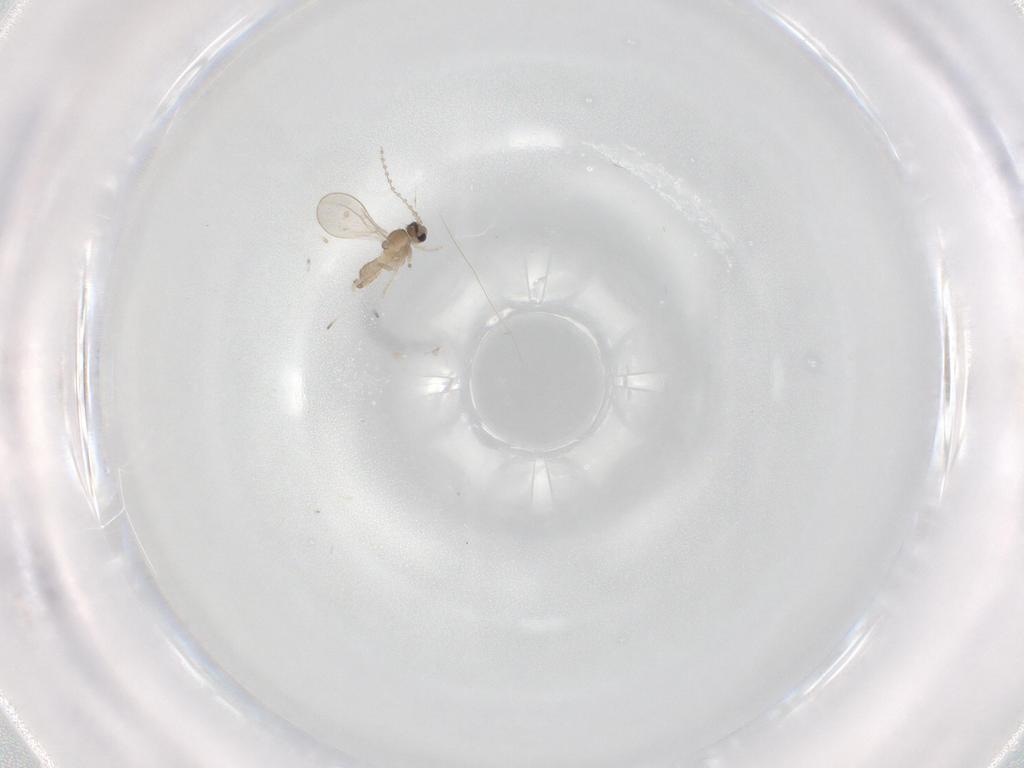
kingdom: Animalia
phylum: Arthropoda
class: Insecta
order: Diptera
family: Cecidomyiidae
